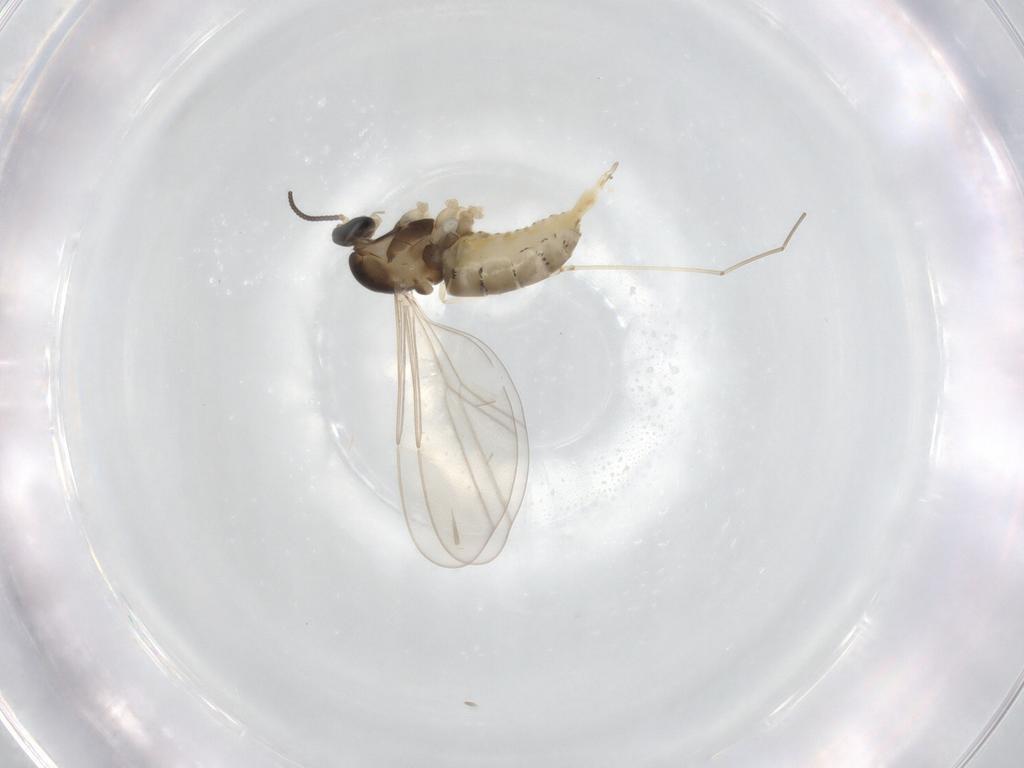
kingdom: Animalia
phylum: Arthropoda
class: Insecta
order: Diptera
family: Cecidomyiidae
